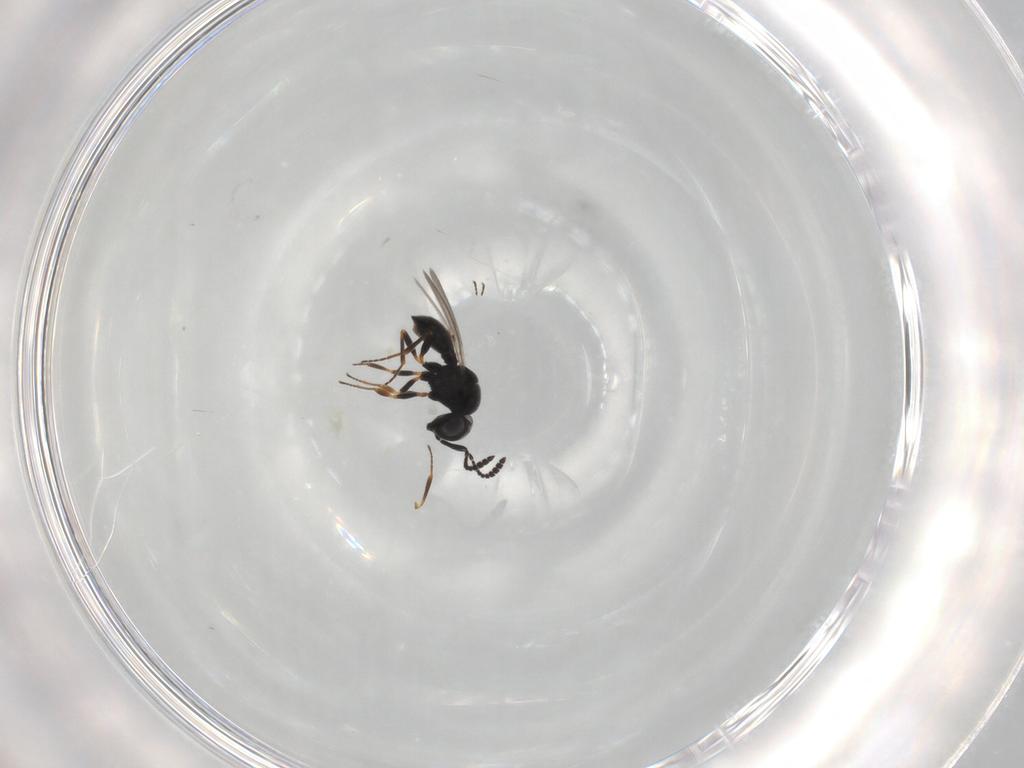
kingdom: Animalia
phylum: Arthropoda
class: Insecta
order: Hymenoptera
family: Scelionidae
